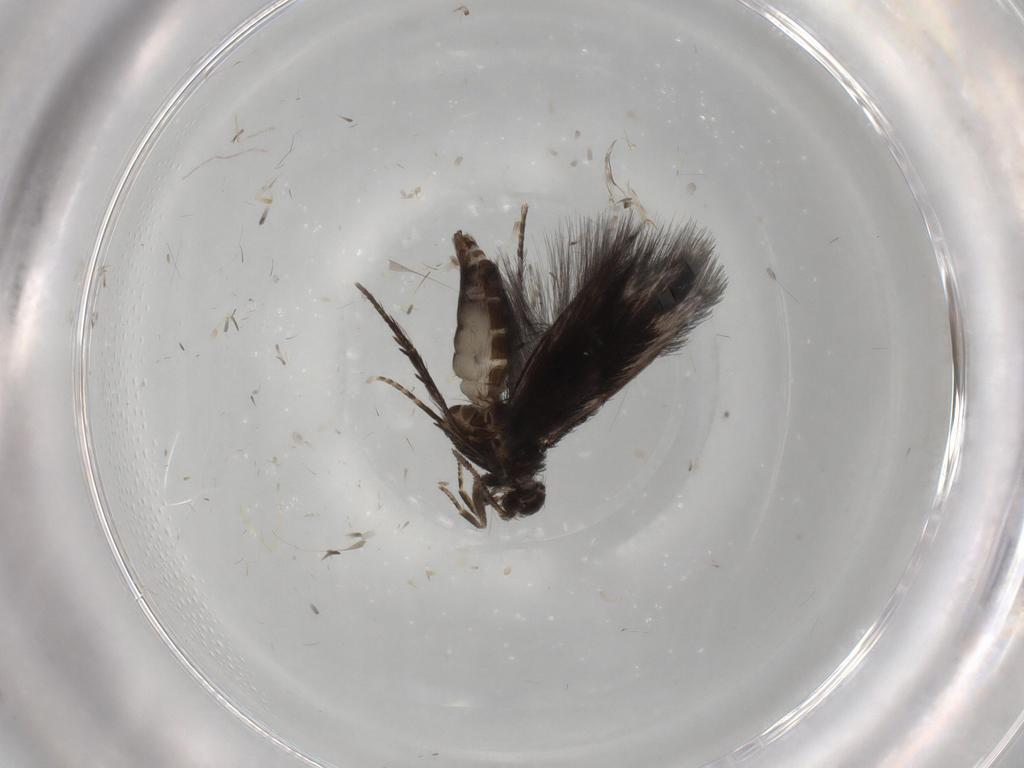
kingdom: Animalia
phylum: Arthropoda
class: Insecta
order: Trichoptera
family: Hydroptilidae
